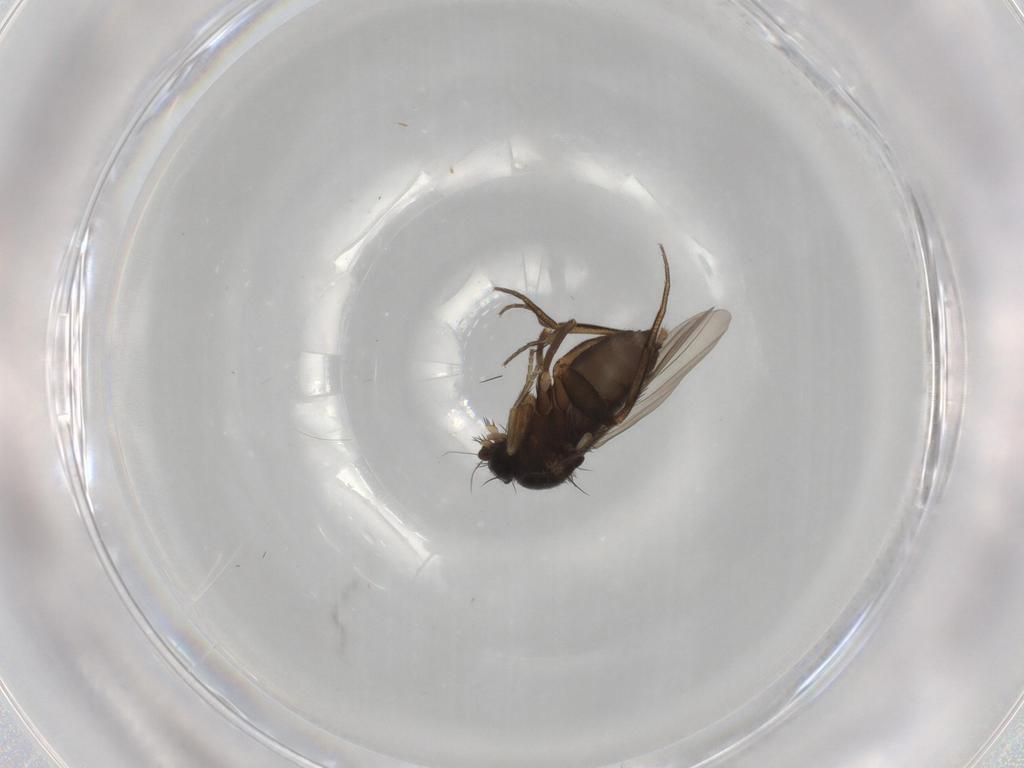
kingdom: Animalia
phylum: Arthropoda
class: Insecta
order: Diptera
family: Phoridae
